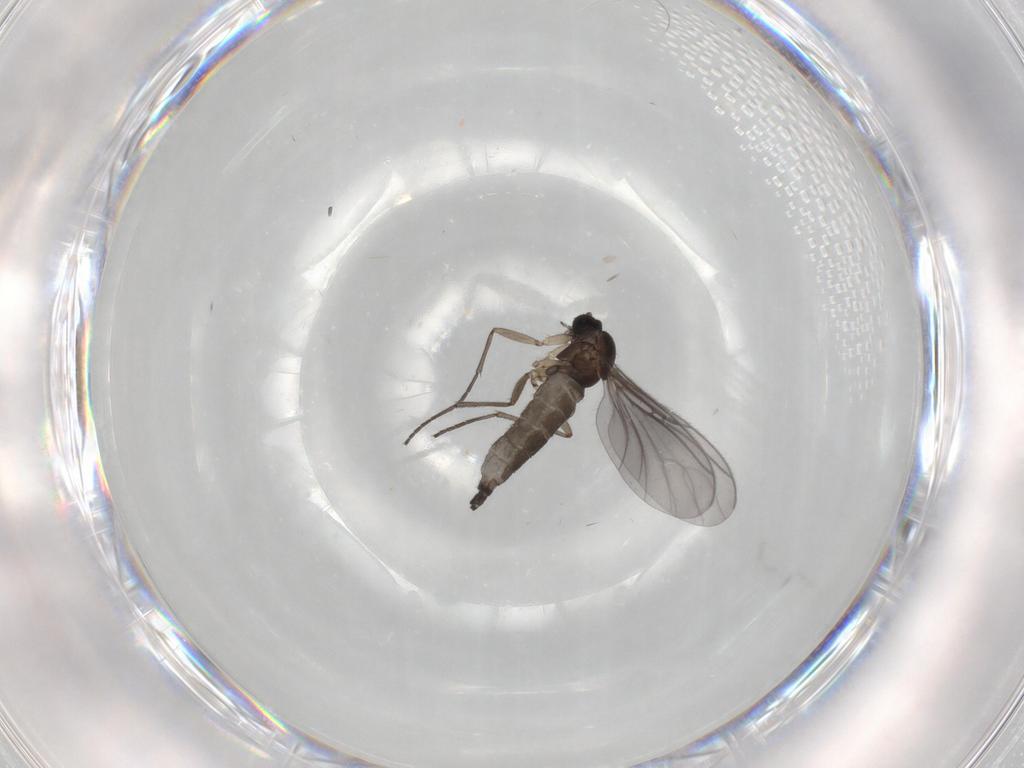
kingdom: Animalia
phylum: Arthropoda
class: Insecta
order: Diptera
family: Sciaridae
